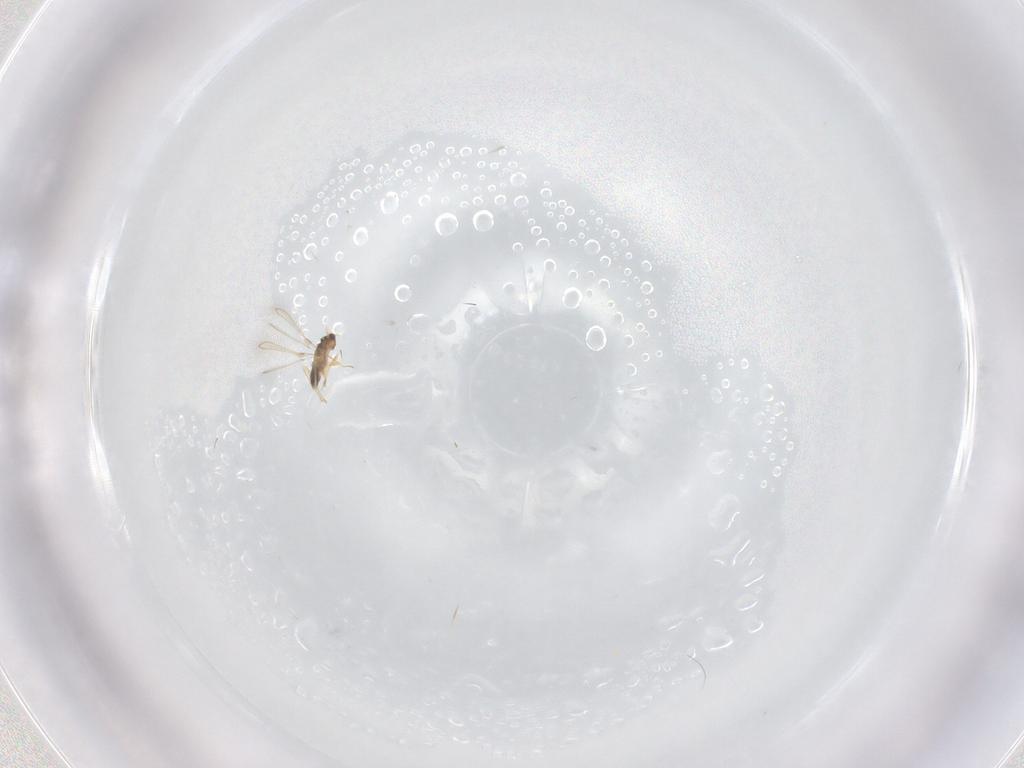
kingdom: Animalia
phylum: Arthropoda
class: Insecta
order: Hymenoptera
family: Mymaridae
